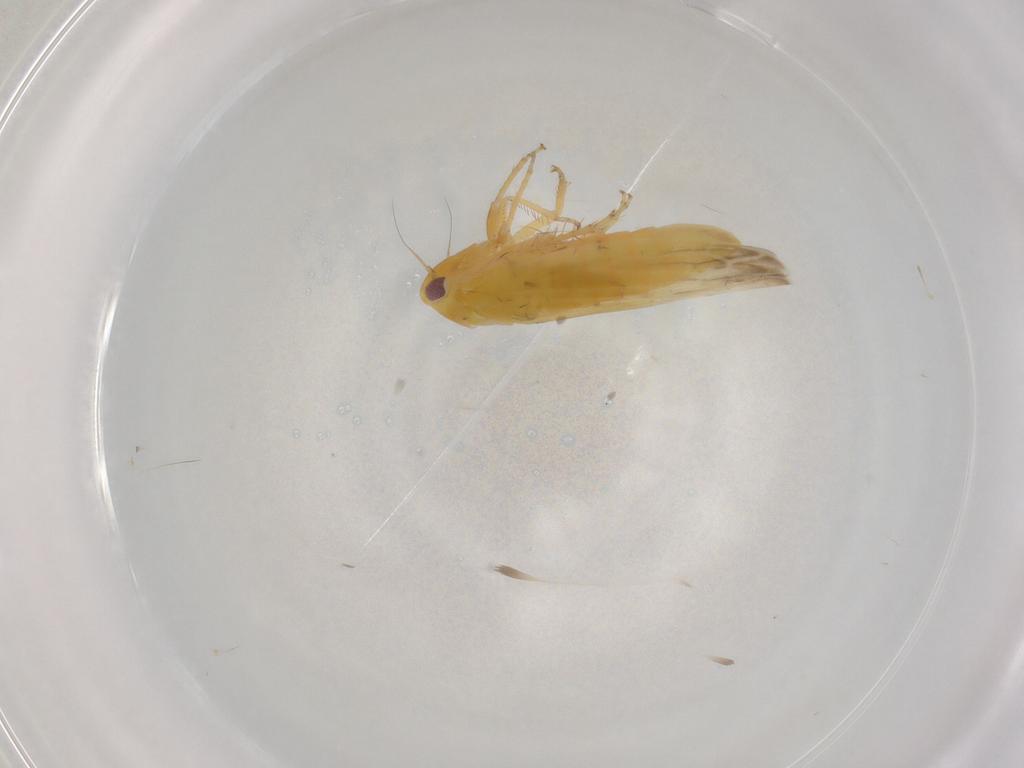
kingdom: Animalia
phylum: Arthropoda
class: Insecta
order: Hemiptera
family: Cicadellidae
